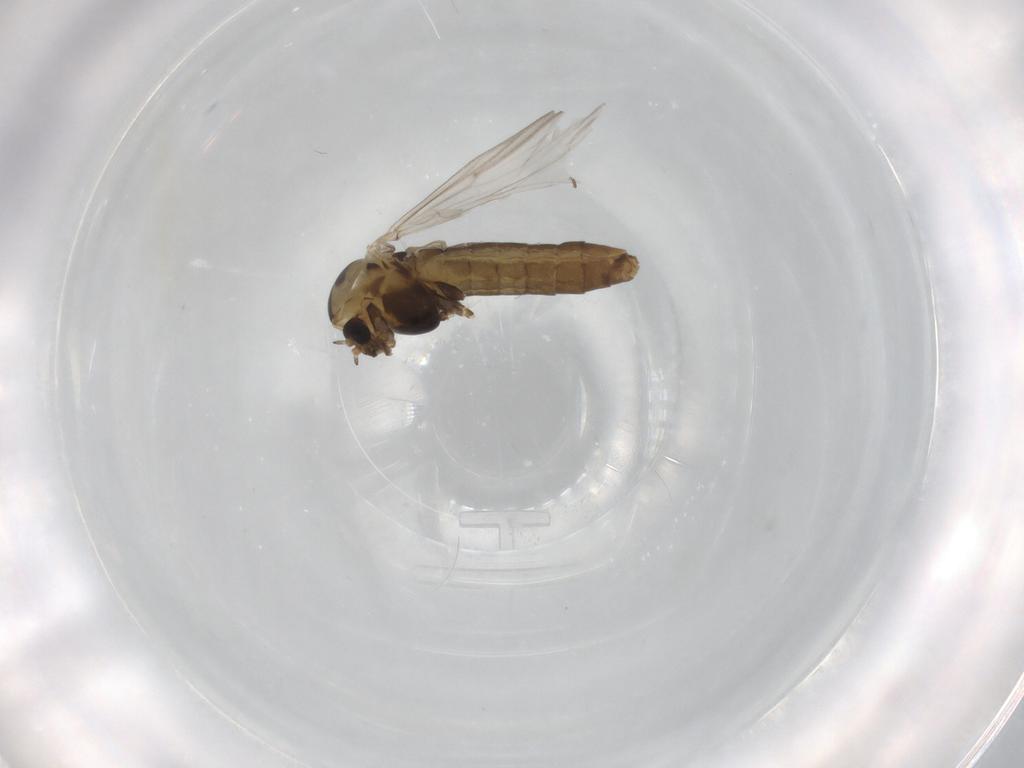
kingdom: Animalia
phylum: Arthropoda
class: Insecta
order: Diptera
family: Chironomidae
